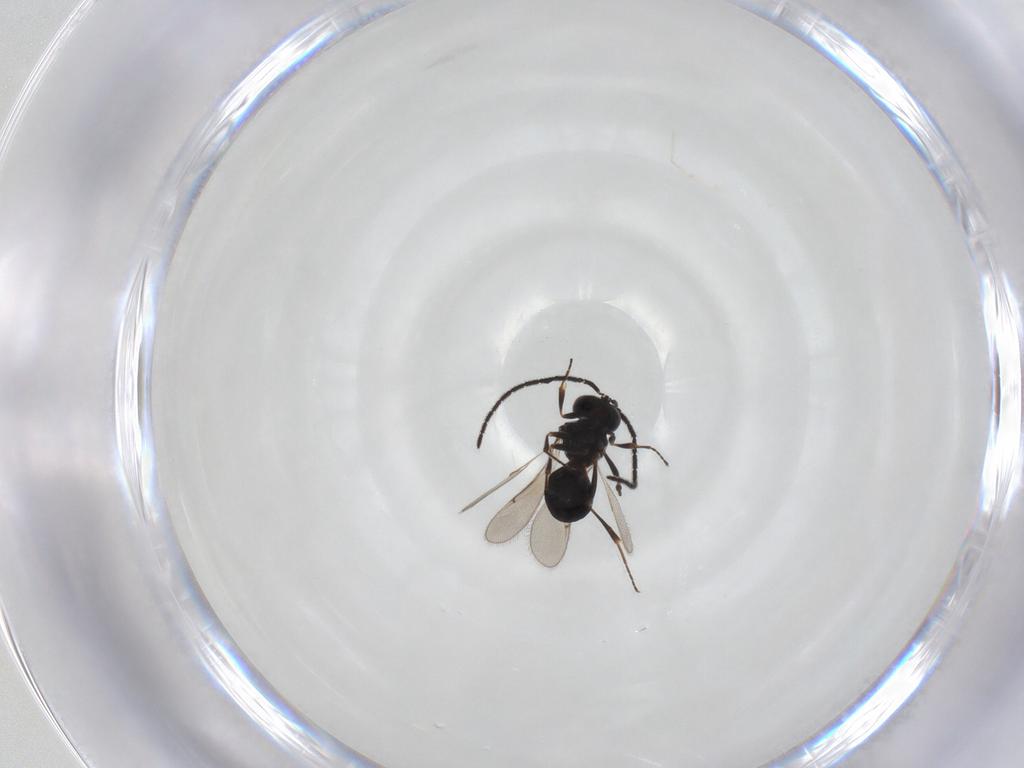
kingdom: Animalia
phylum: Arthropoda
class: Insecta
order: Hymenoptera
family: Scelionidae
